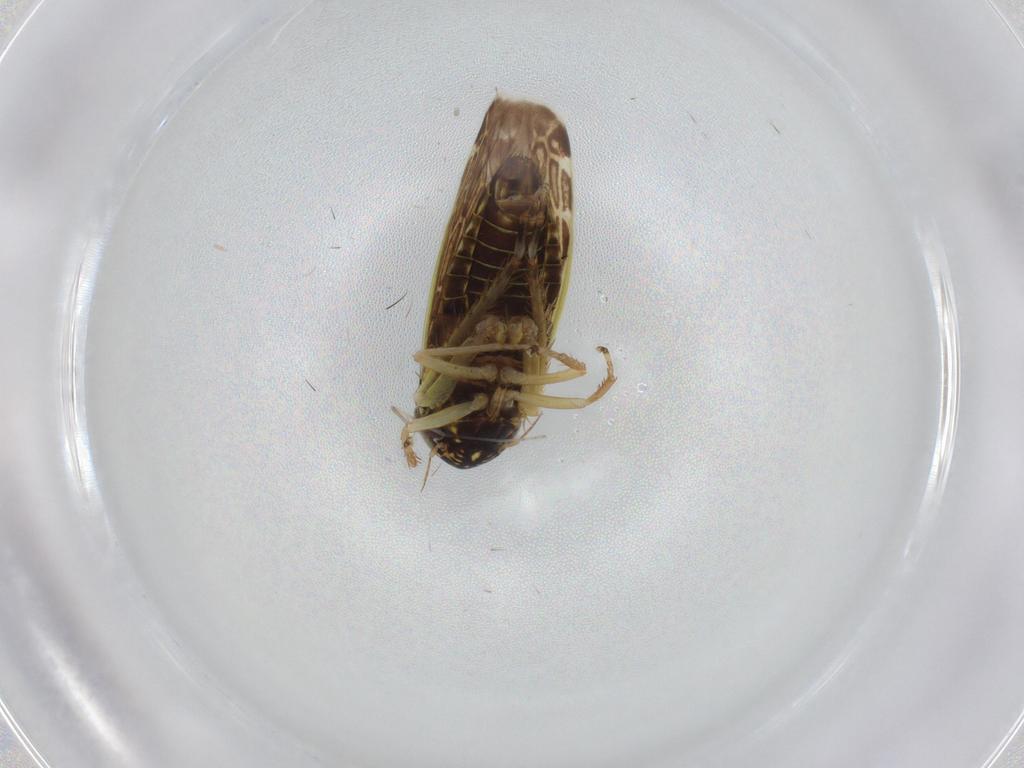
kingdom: Animalia
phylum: Arthropoda
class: Insecta
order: Hemiptera
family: Cicadellidae
